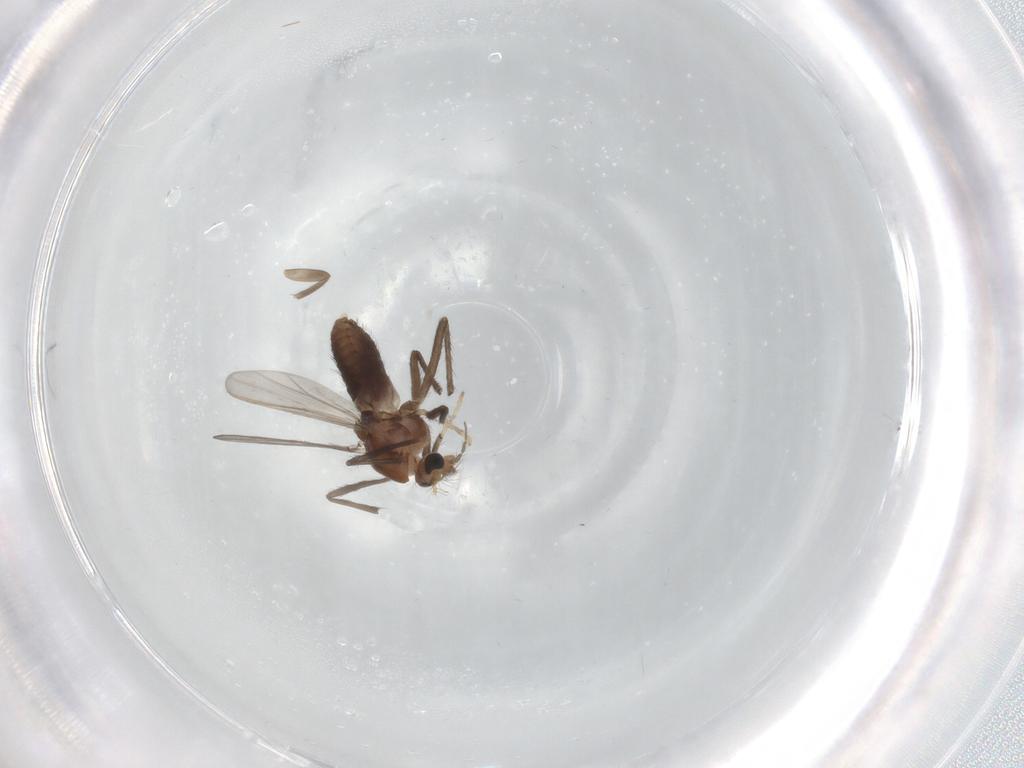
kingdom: Animalia
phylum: Arthropoda
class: Insecta
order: Diptera
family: Phoridae
